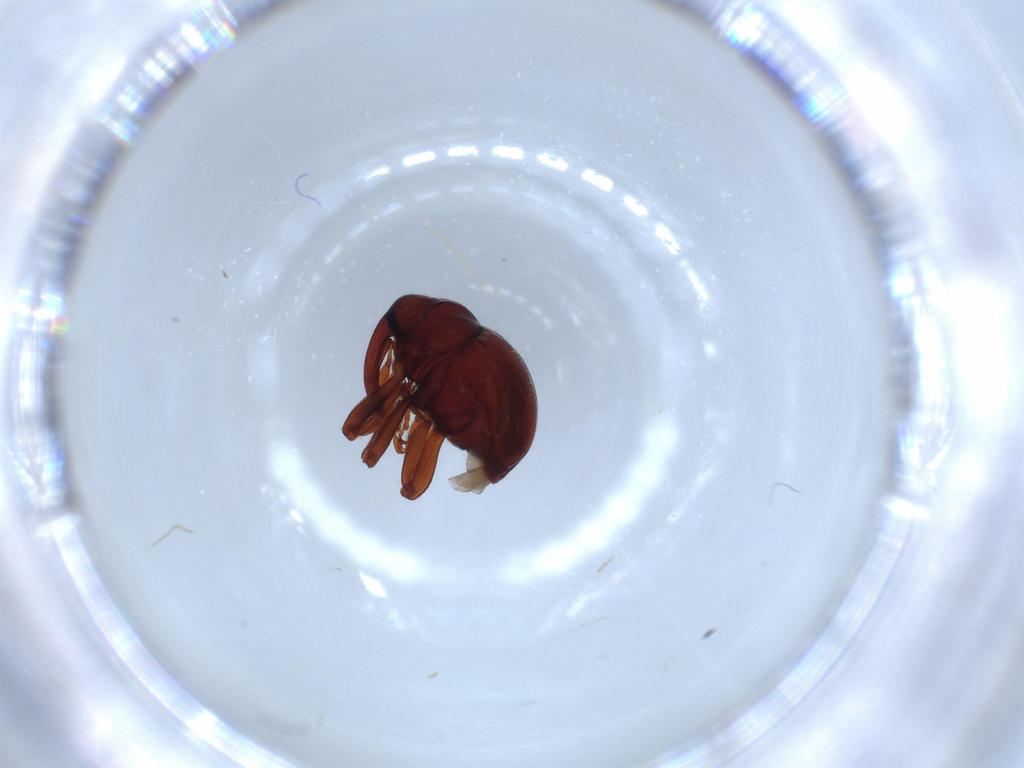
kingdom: Animalia
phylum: Arthropoda
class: Insecta
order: Coleoptera
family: Curculionidae
